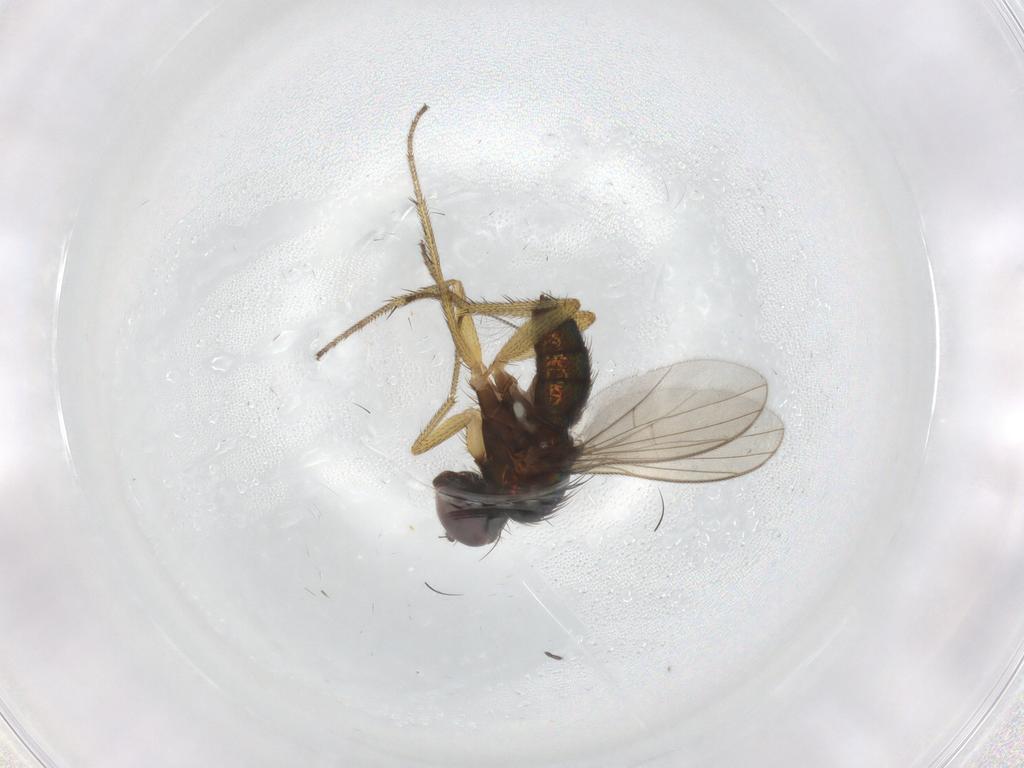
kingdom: Animalia
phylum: Arthropoda
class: Insecta
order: Diptera
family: Sciaridae
